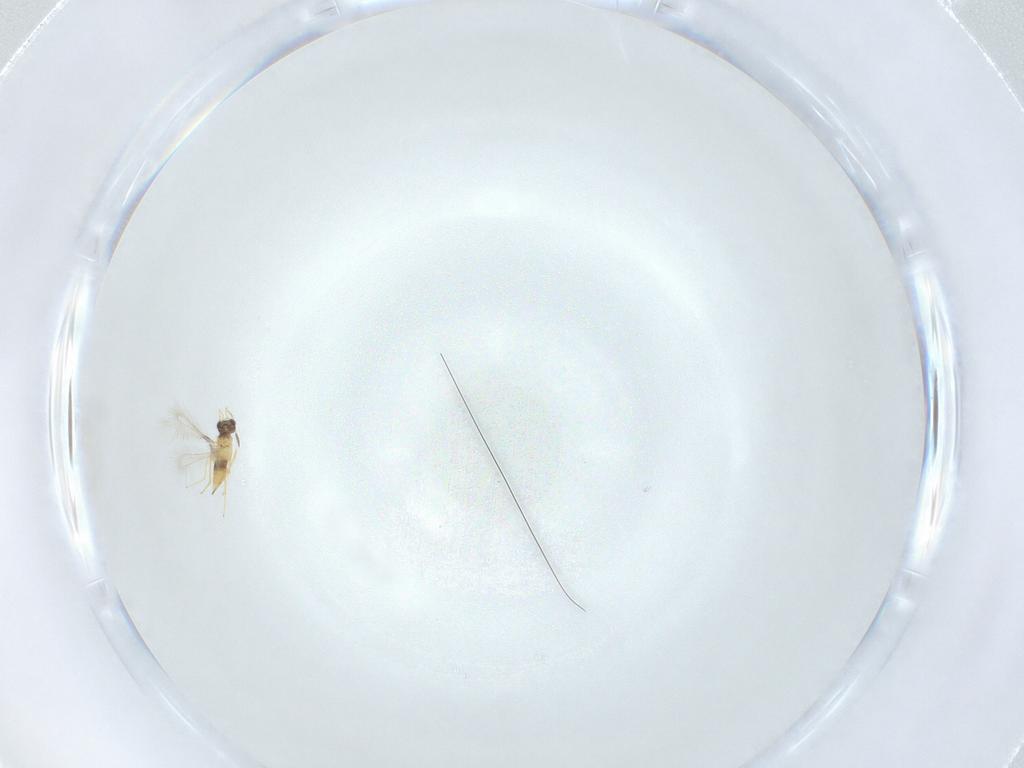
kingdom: Animalia
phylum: Arthropoda
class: Insecta
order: Hymenoptera
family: Mymaridae
